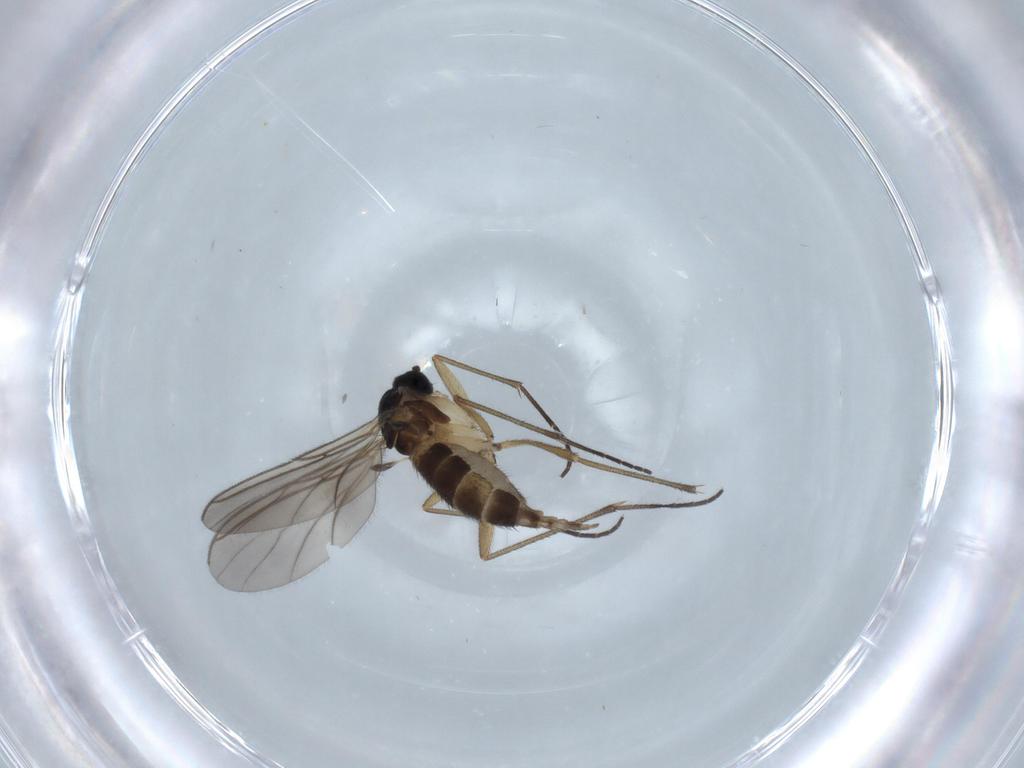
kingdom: Animalia
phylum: Arthropoda
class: Insecta
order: Diptera
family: Sciaridae
